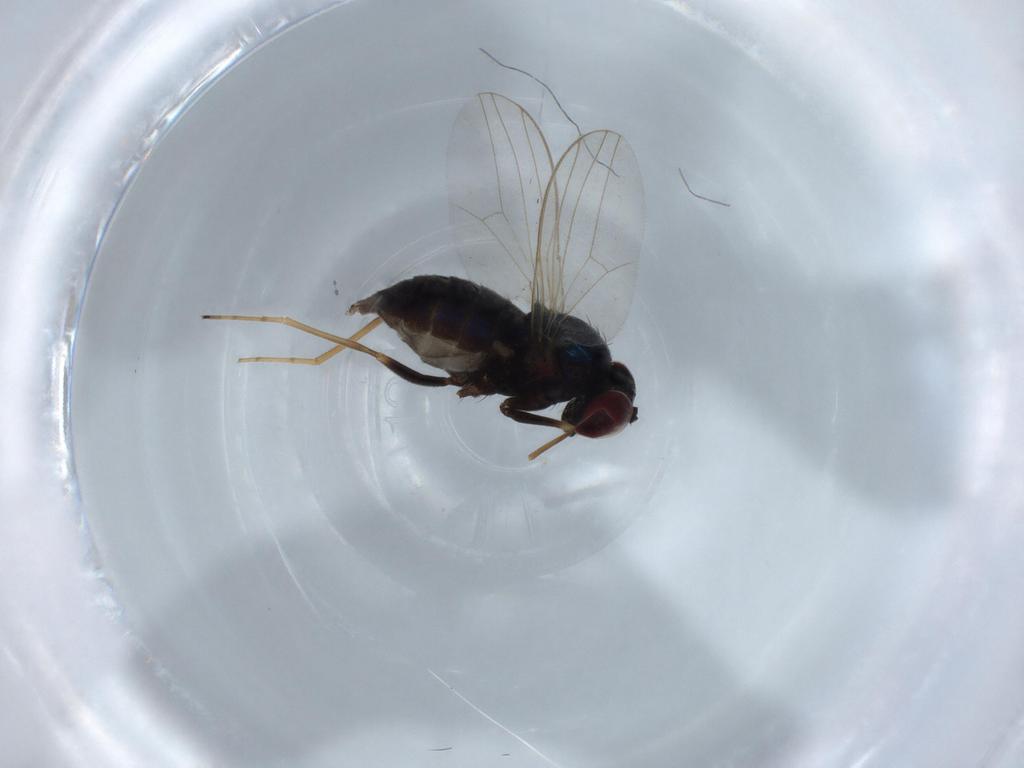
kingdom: Animalia
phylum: Arthropoda
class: Insecta
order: Diptera
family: Bibionidae
